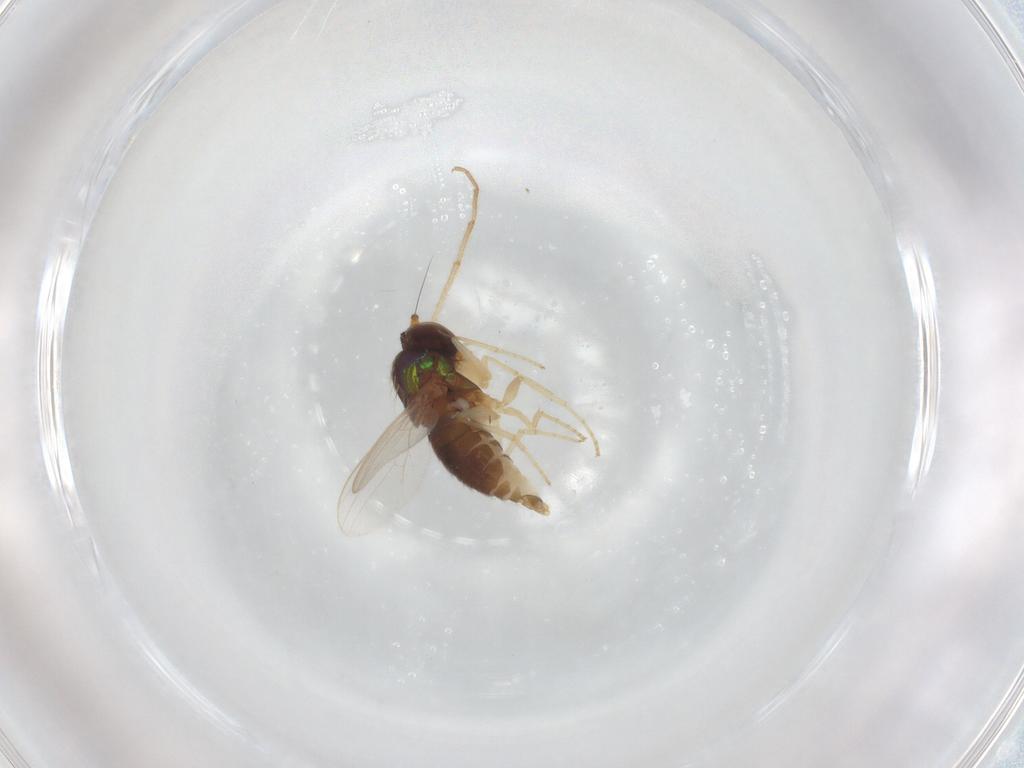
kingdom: Animalia
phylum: Arthropoda
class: Insecta
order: Diptera
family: Dolichopodidae
